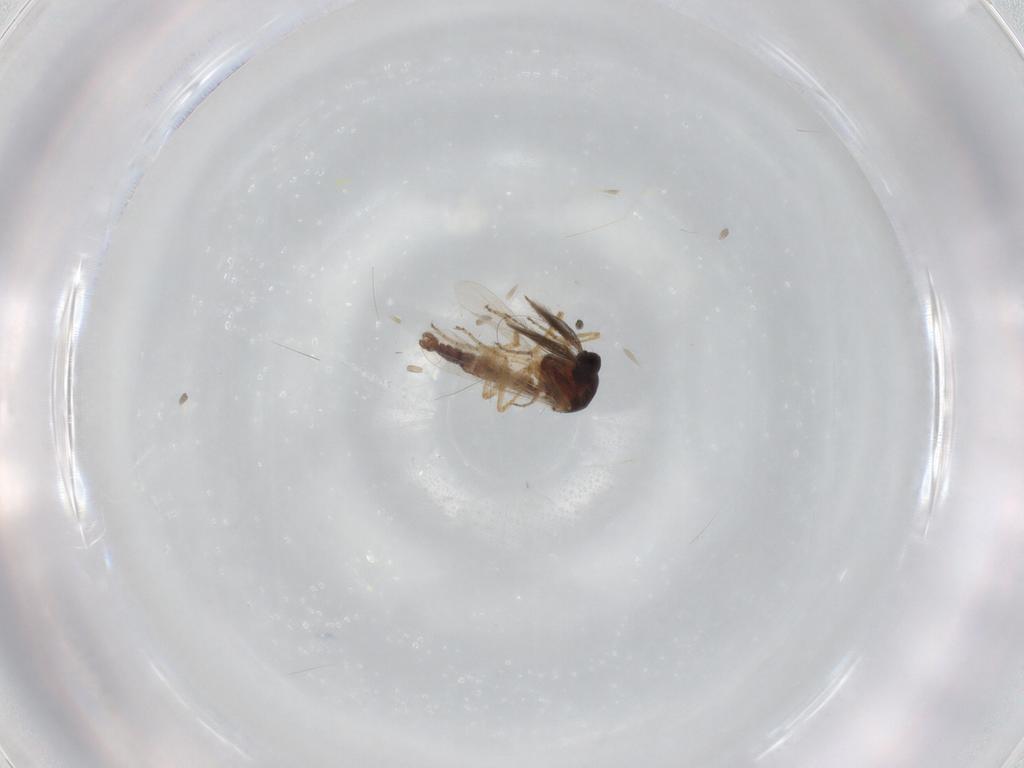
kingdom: Animalia
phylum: Arthropoda
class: Insecta
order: Diptera
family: Ceratopogonidae
